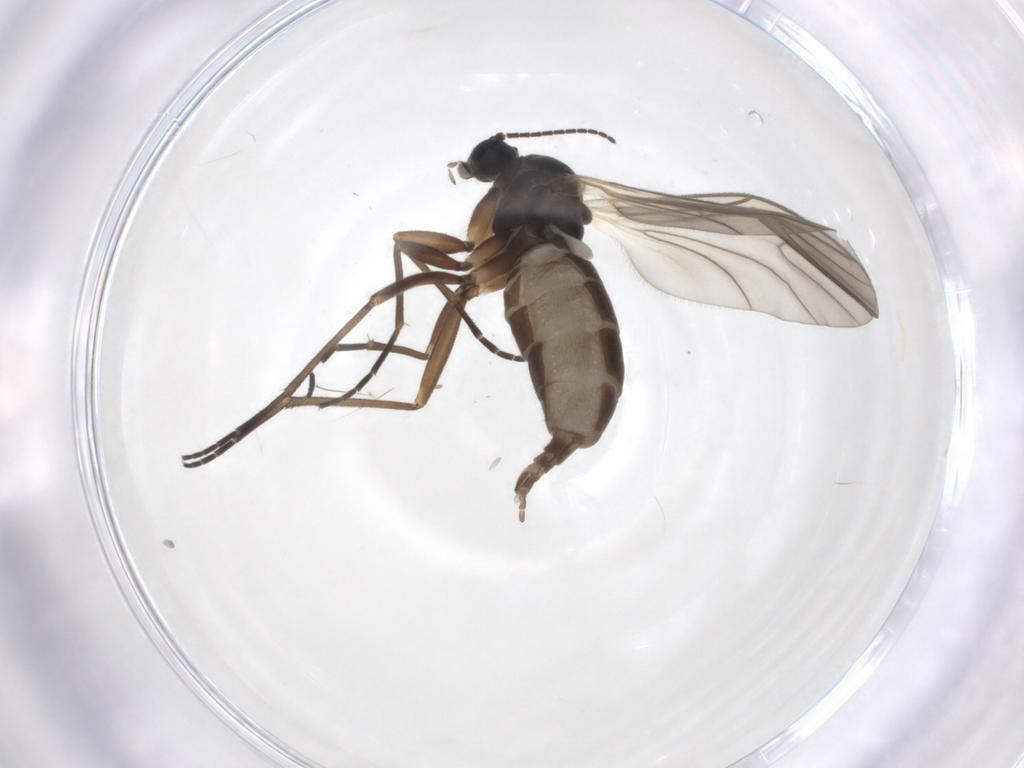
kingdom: Animalia
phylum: Arthropoda
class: Insecta
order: Diptera
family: Sciaridae
